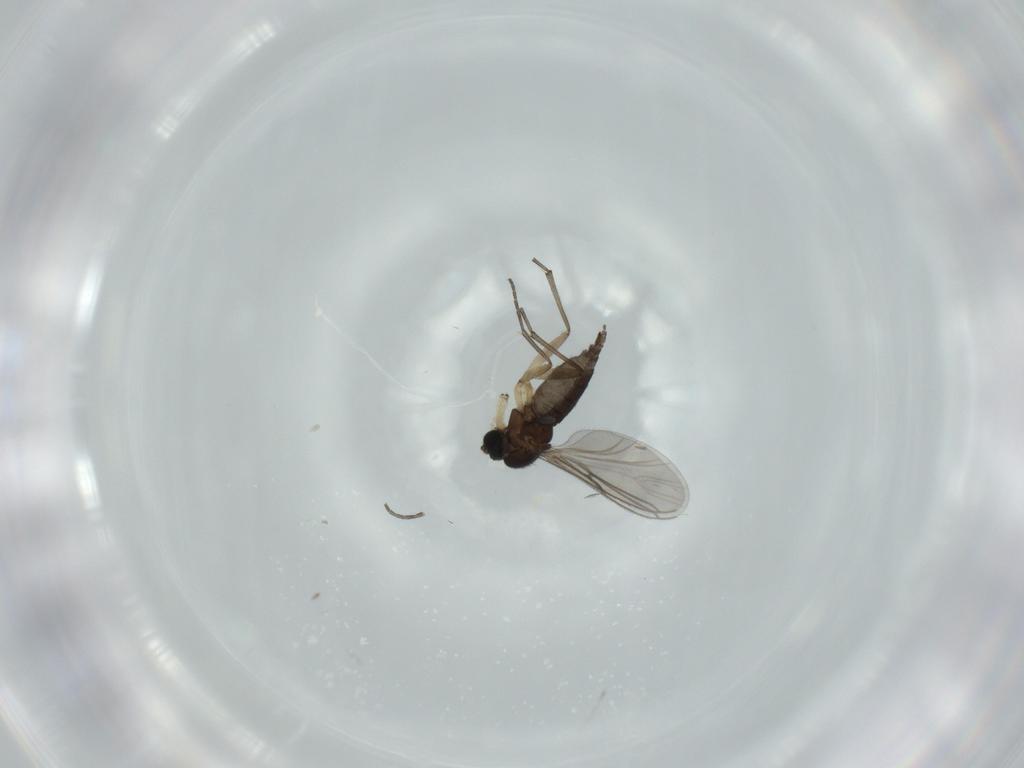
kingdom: Animalia
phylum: Arthropoda
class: Insecta
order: Diptera
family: Sciaridae
